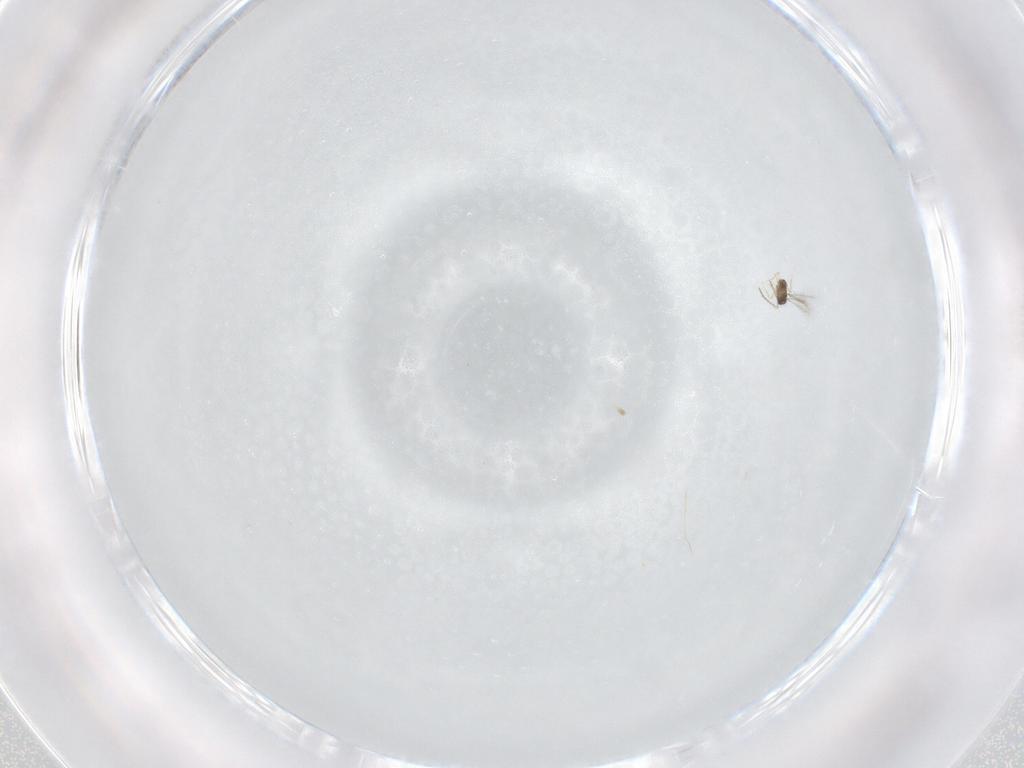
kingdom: Animalia
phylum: Arthropoda
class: Insecta
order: Hymenoptera
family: Mymaridae
